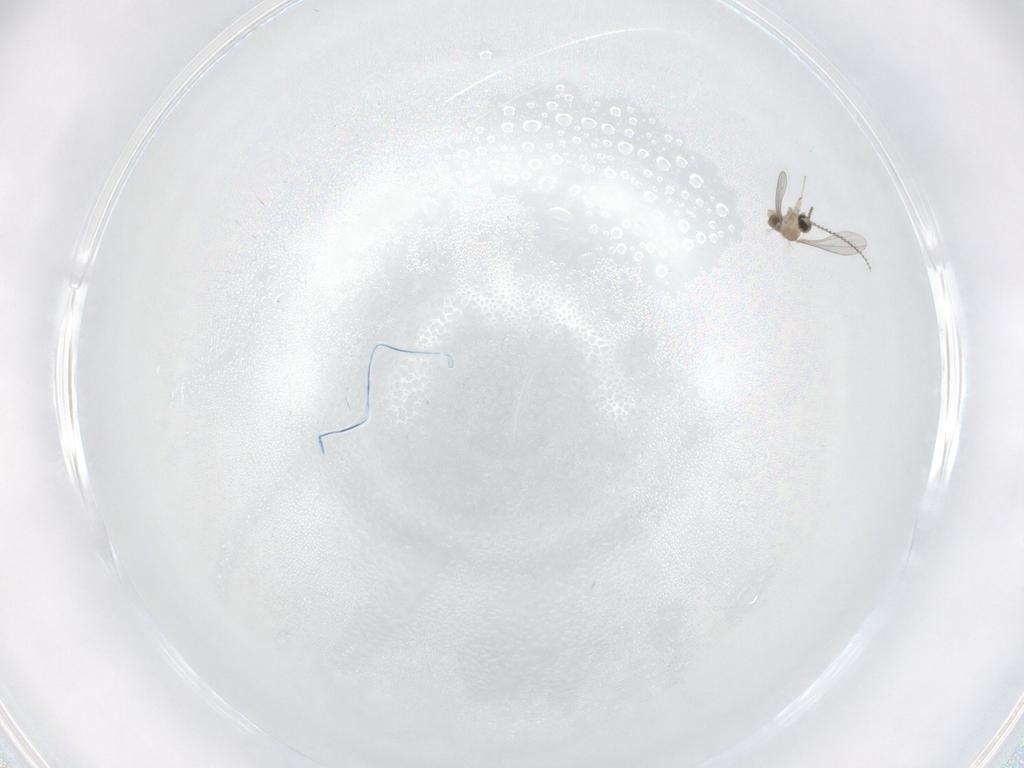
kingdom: Animalia
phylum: Arthropoda
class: Insecta
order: Diptera
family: Cecidomyiidae
